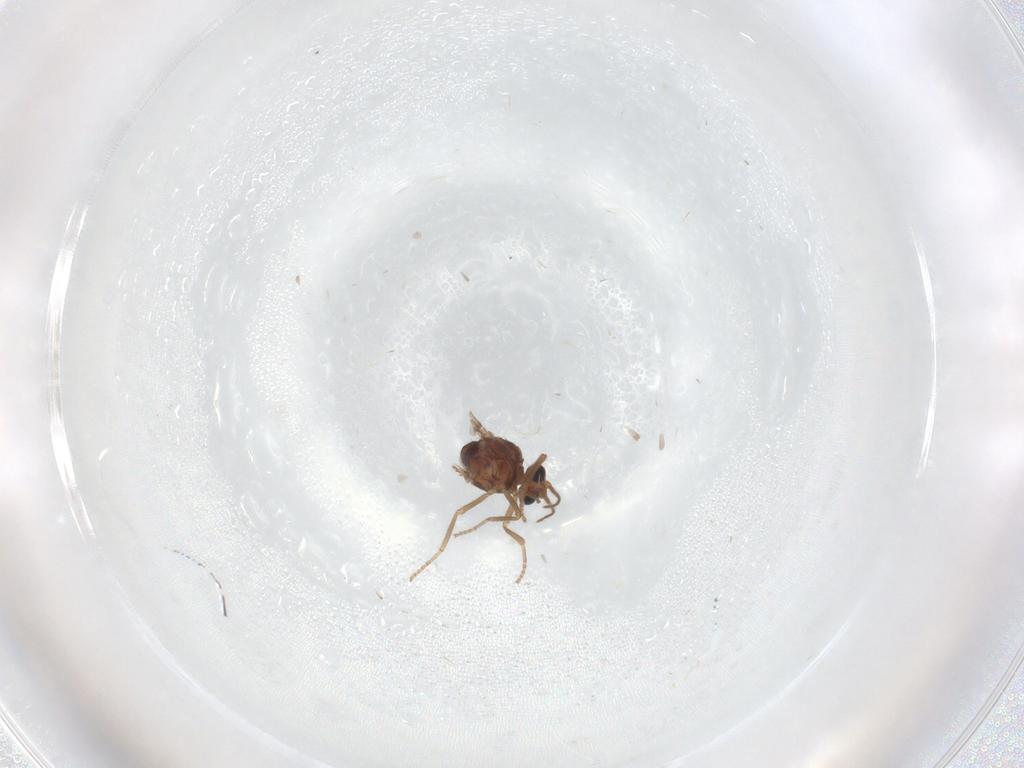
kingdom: Animalia
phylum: Arthropoda
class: Insecta
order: Diptera
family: Ceratopogonidae
